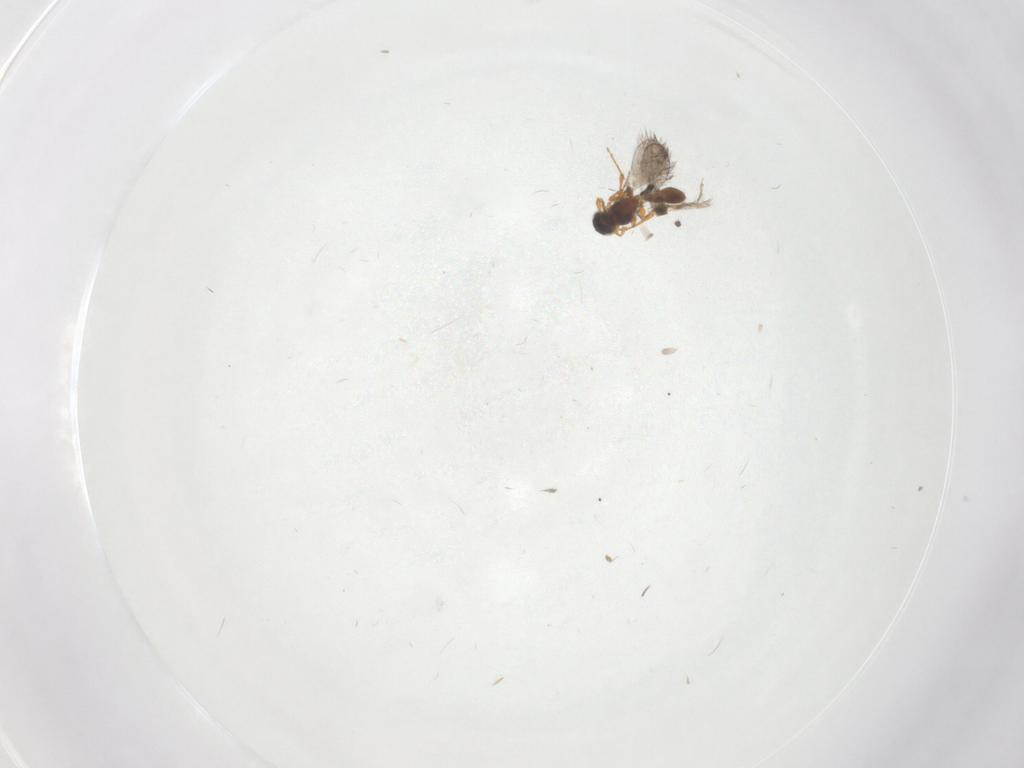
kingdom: Animalia
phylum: Arthropoda
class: Insecta
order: Hymenoptera
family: Platygastridae
